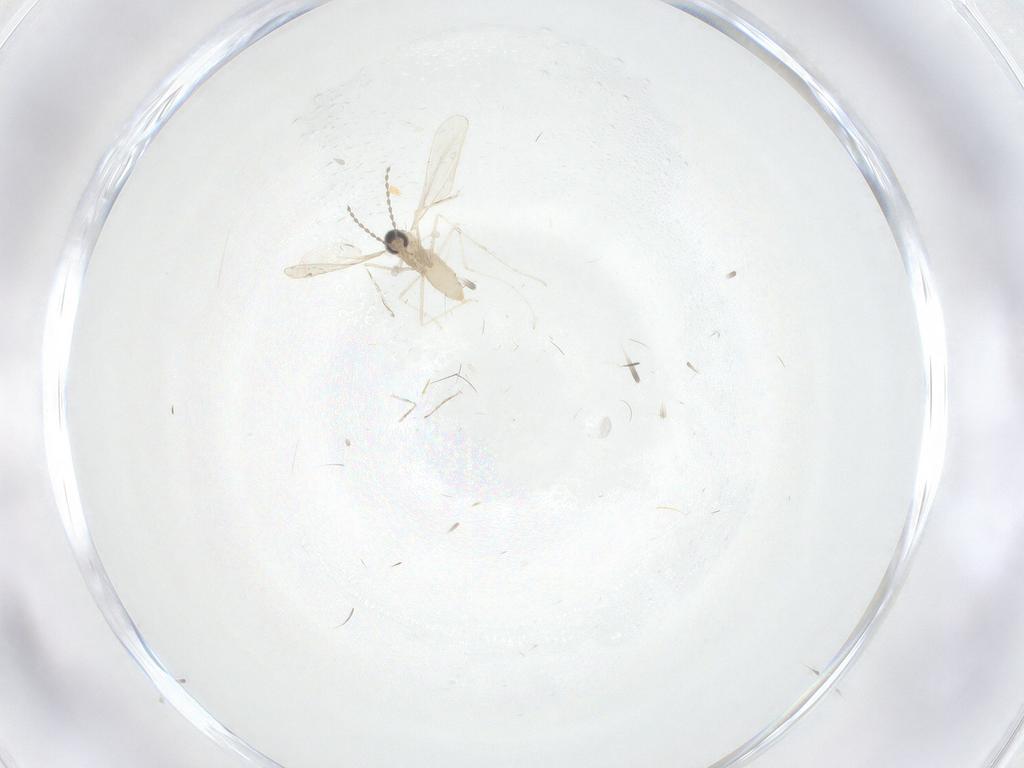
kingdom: Animalia
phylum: Arthropoda
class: Insecta
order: Diptera
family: Cecidomyiidae
